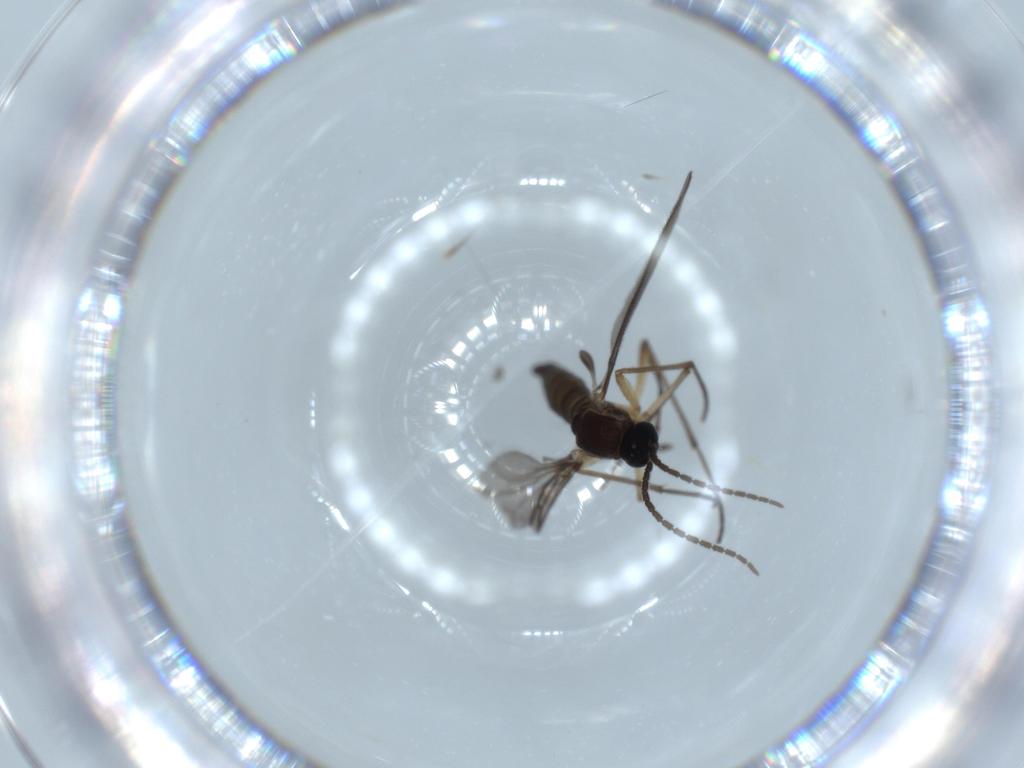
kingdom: Animalia
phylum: Arthropoda
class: Insecta
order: Diptera
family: Sciaridae
